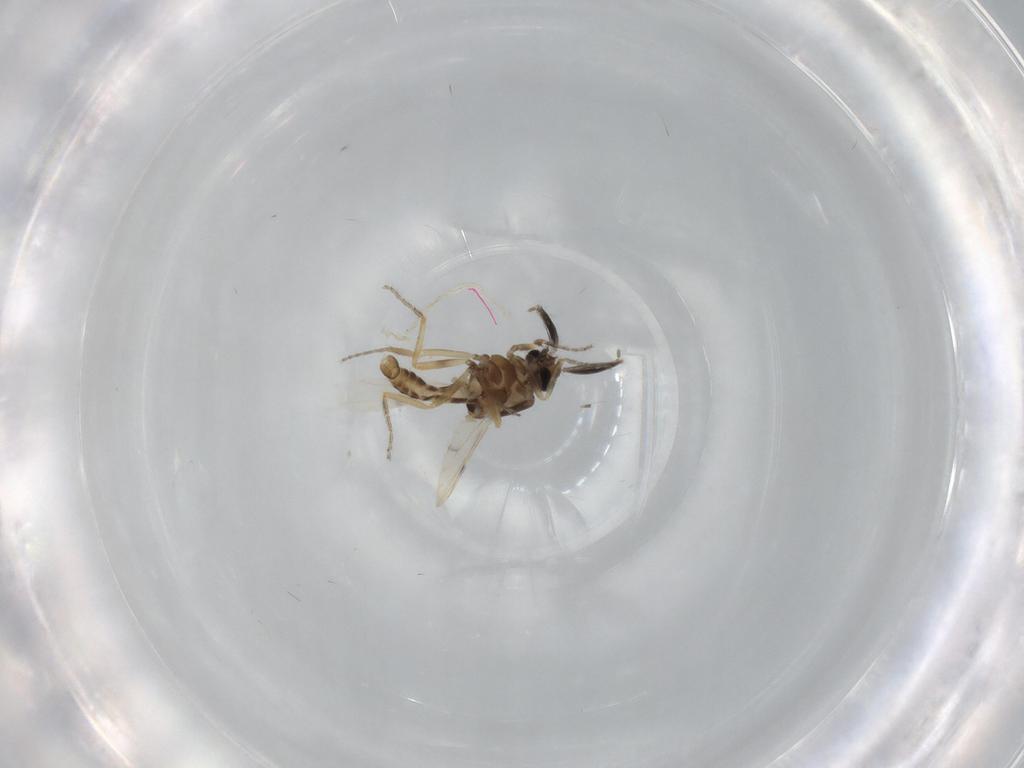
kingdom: Animalia
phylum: Arthropoda
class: Insecta
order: Diptera
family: Ceratopogonidae
